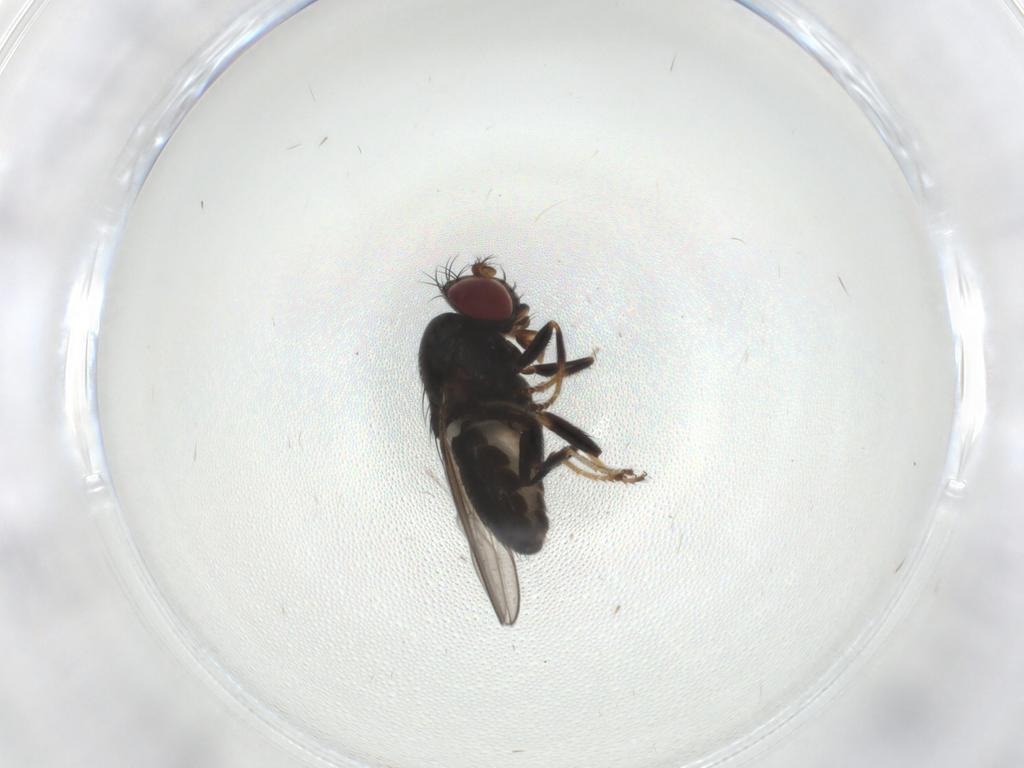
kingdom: Animalia
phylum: Arthropoda
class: Insecta
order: Diptera
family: Ephydridae
